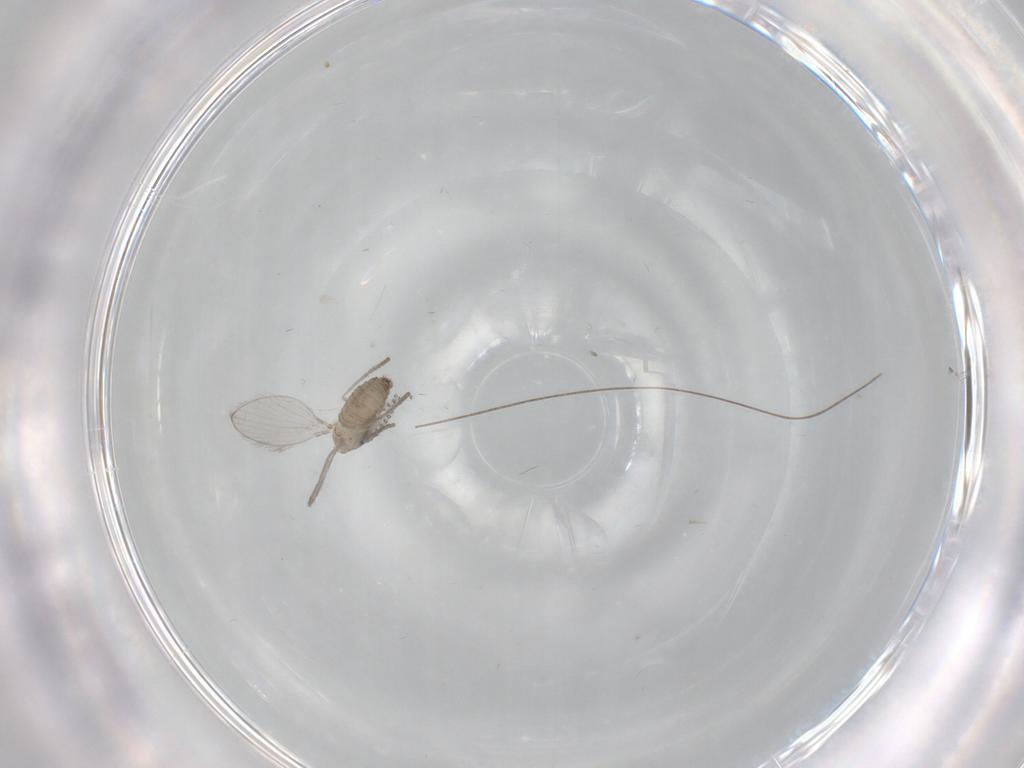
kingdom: Animalia
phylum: Arthropoda
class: Insecta
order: Diptera
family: Psychodidae
